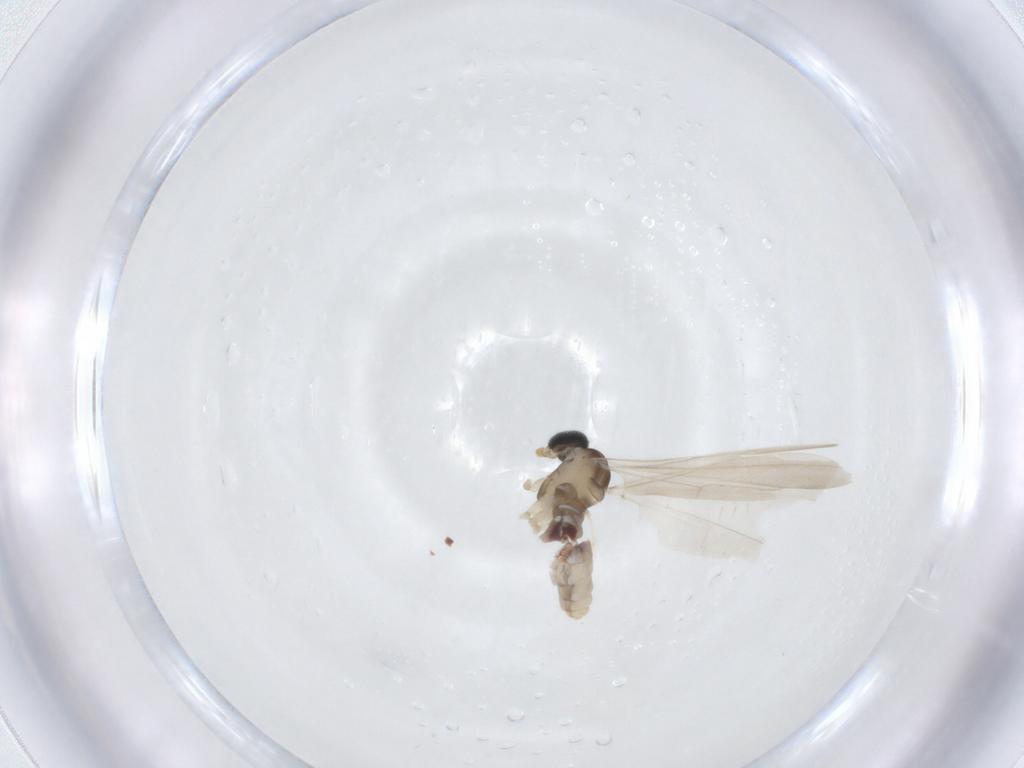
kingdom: Animalia
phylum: Arthropoda
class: Insecta
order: Diptera
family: Cecidomyiidae
